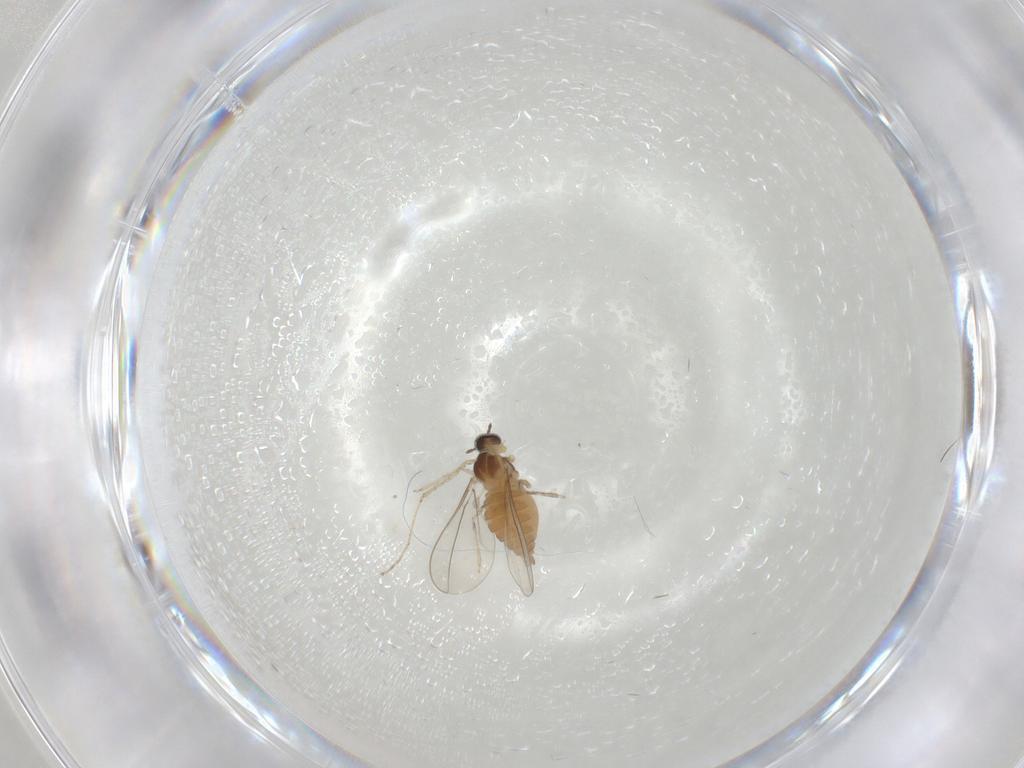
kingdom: Animalia
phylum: Arthropoda
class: Insecta
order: Diptera
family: Cecidomyiidae
